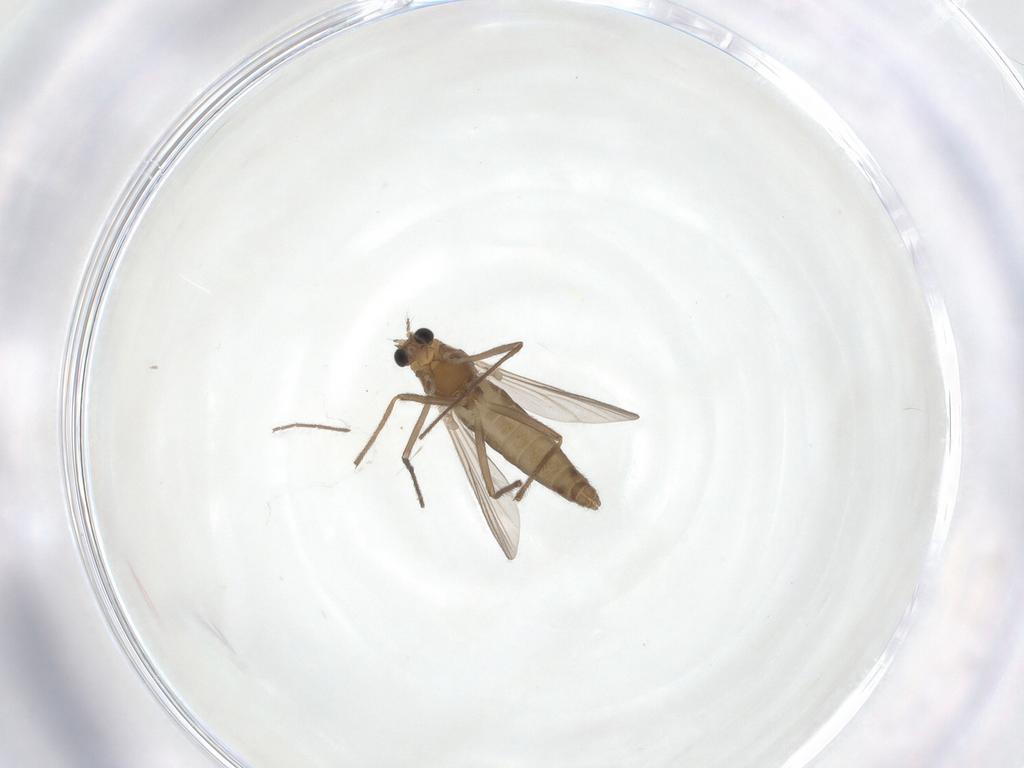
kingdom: Animalia
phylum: Arthropoda
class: Insecta
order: Diptera
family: Chironomidae
